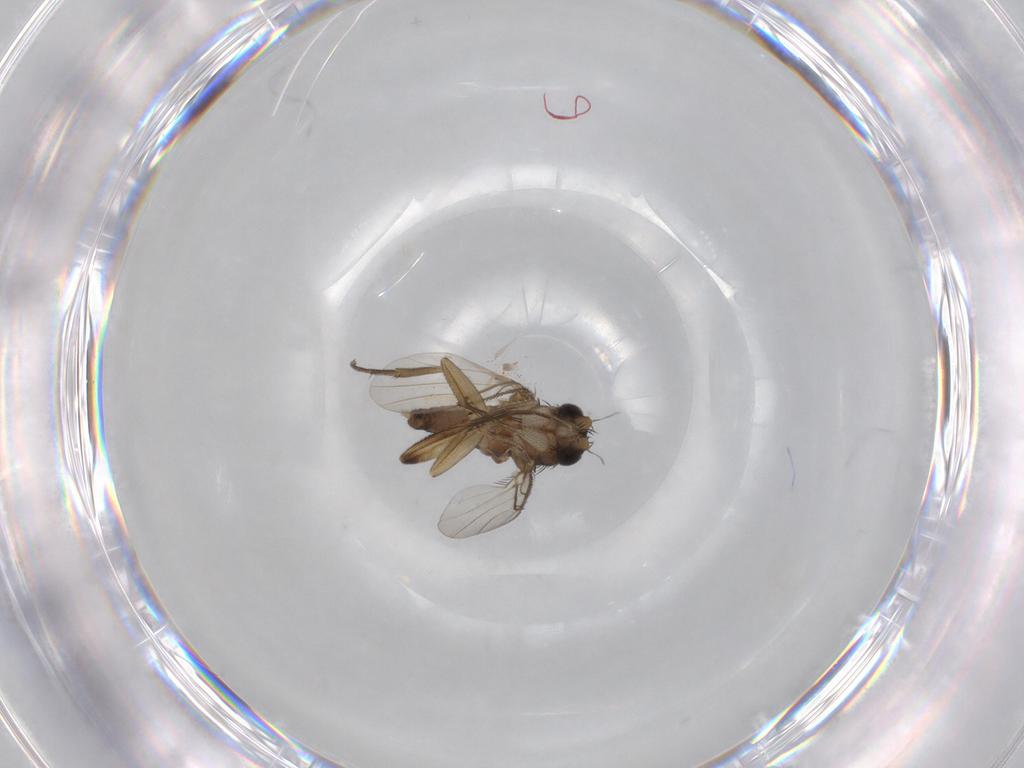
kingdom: Animalia
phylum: Arthropoda
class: Insecta
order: Diptera
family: Phoridae
